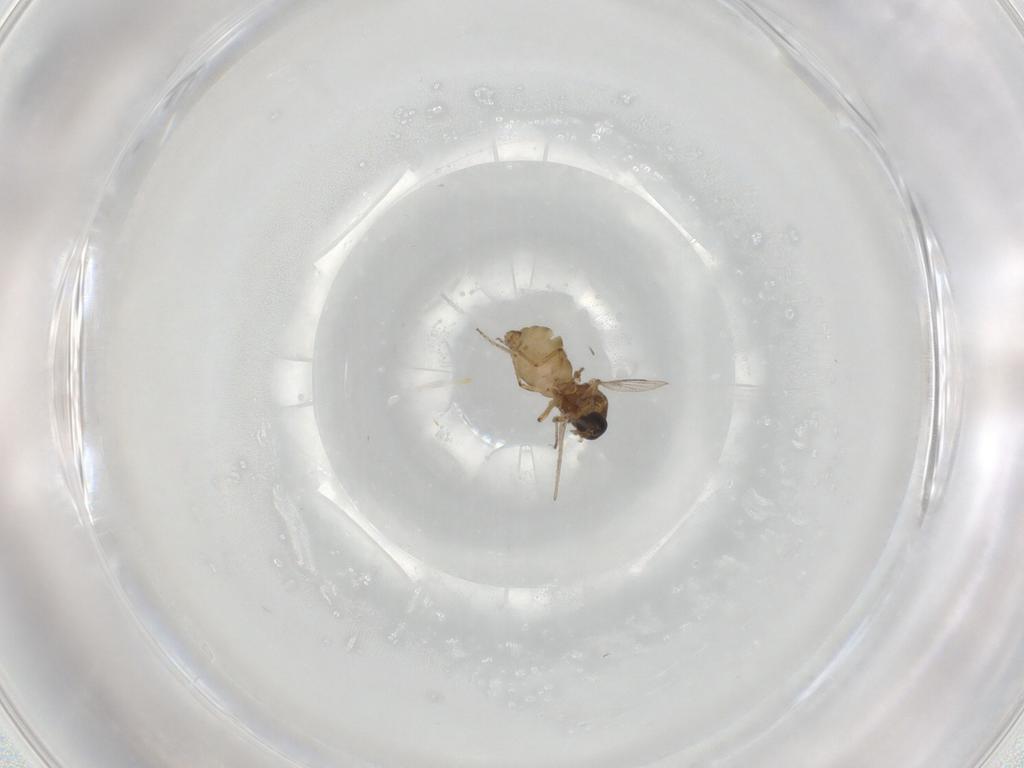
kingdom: Animalia
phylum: Arthropoda
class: Insecta
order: Diptera
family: Ceratopogonidae
